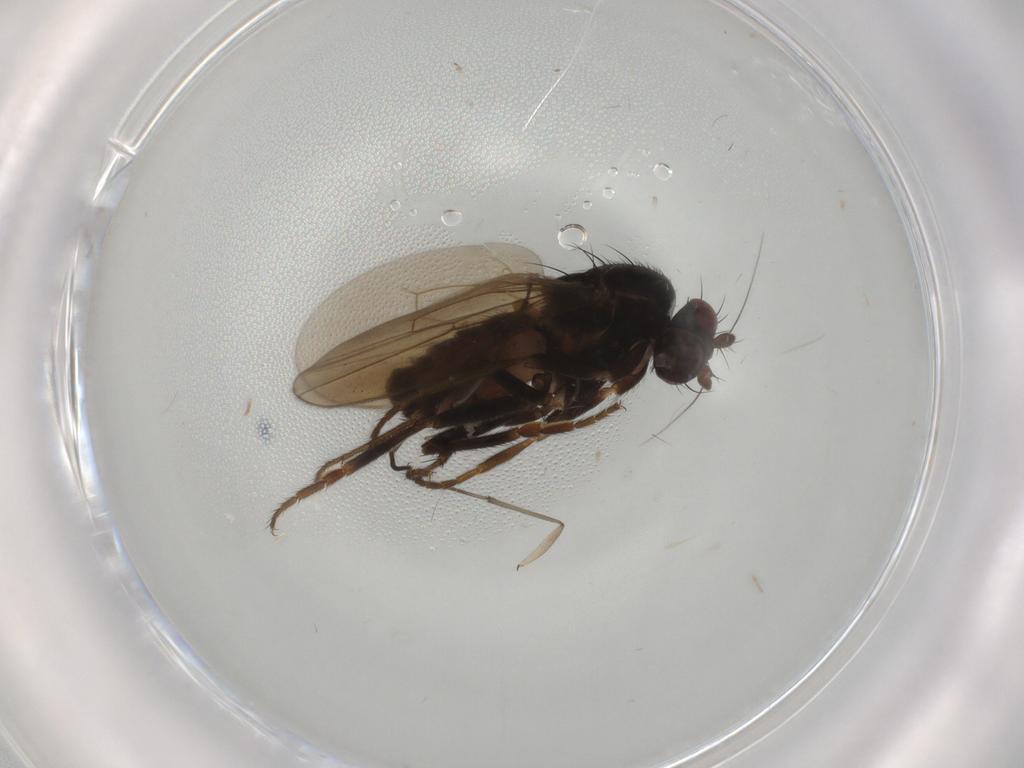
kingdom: Animalia
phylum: Arthropoda
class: Insecta
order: Diptera
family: Sphaeroceridae
